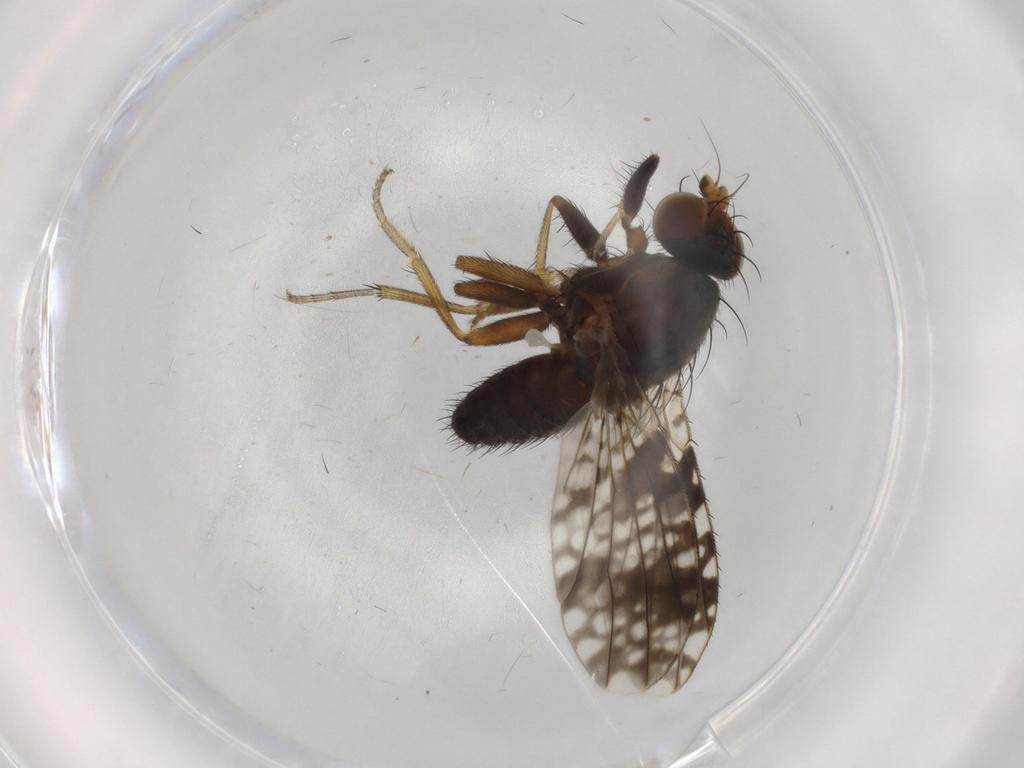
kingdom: Animalia
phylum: Arthropoda
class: Insecta
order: Diptera
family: Tephritidae
